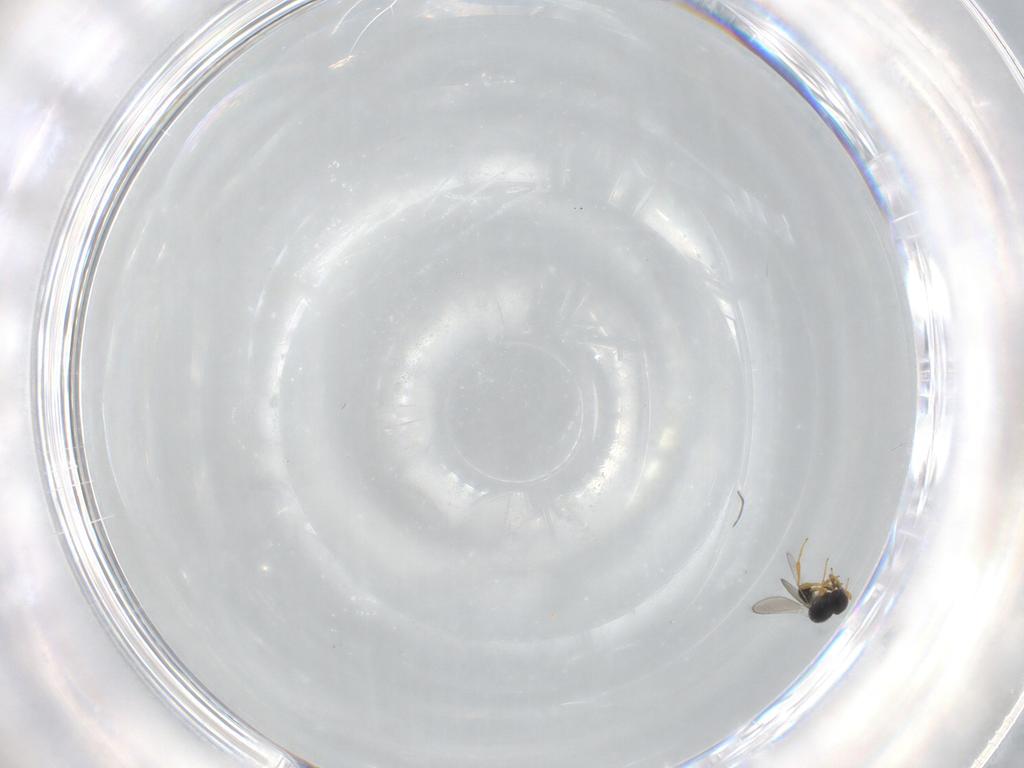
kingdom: Animalia
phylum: Arthropoda
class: Insecta
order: Hymenoptera
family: Platygastridae
